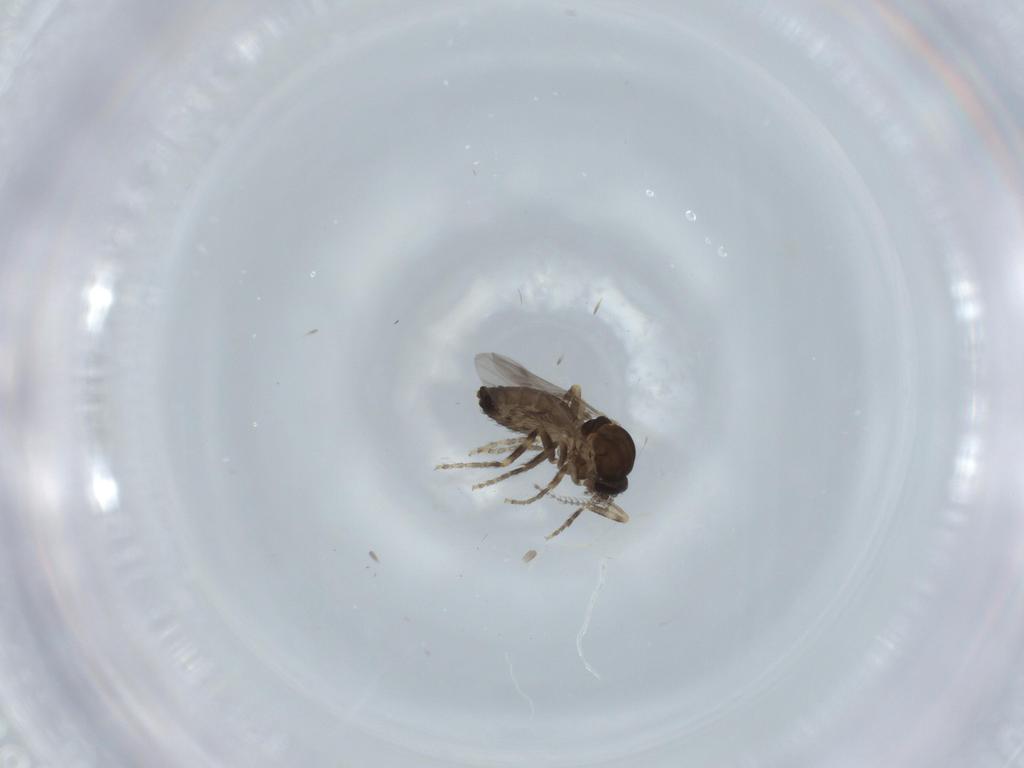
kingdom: Animalia
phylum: Arthropoda
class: Insecta
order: Diptera
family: Ceratopogonidae
